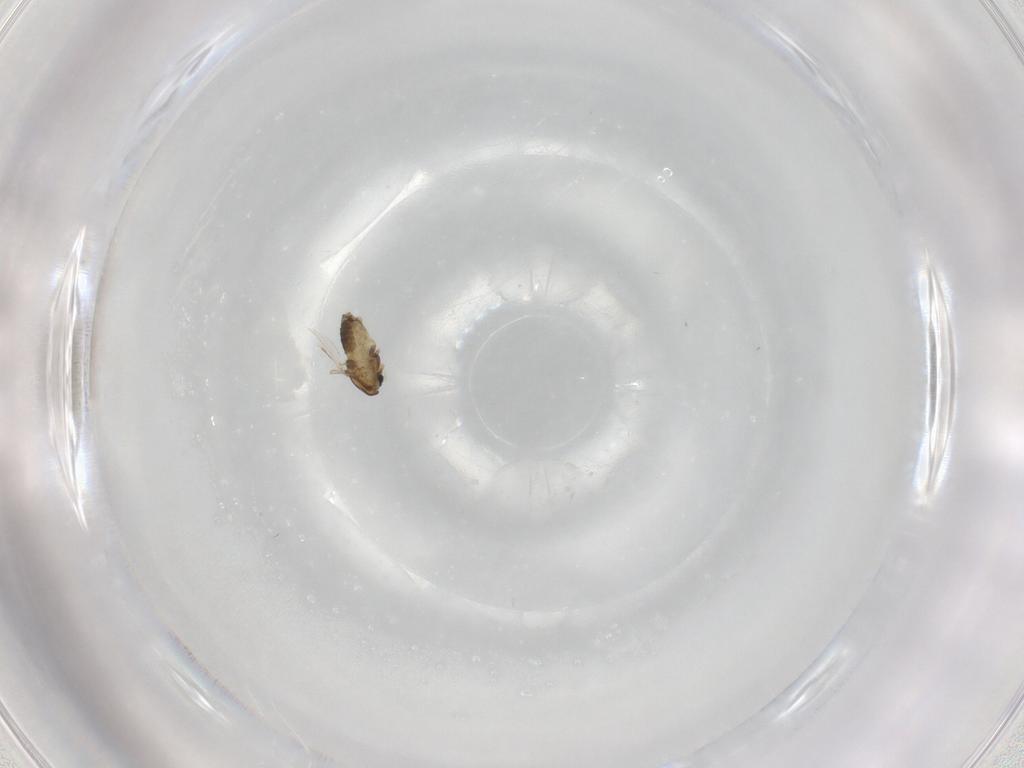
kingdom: Animalia
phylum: Arthropoda
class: Insecta
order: Diptera
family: Chironomidae
